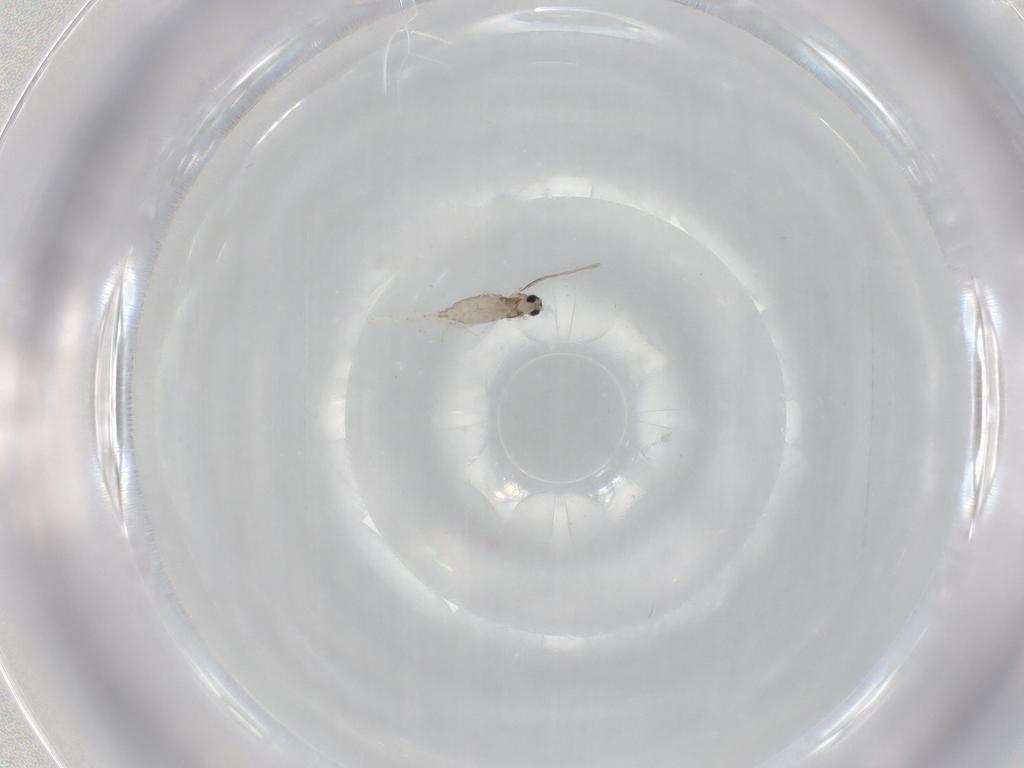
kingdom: Animalia
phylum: Arthropoda
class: Insecta
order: Diptera
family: Cecidomyiidae
